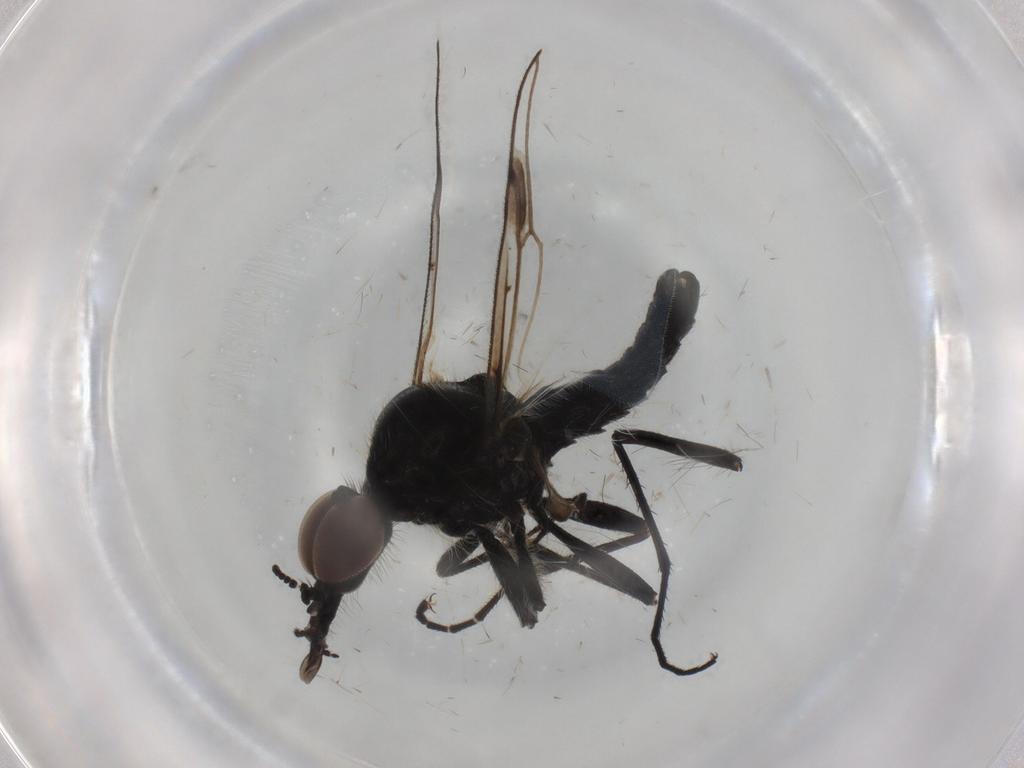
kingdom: Animalia
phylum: Arthropoda
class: Insecta
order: Diptera
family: Sciaridae
